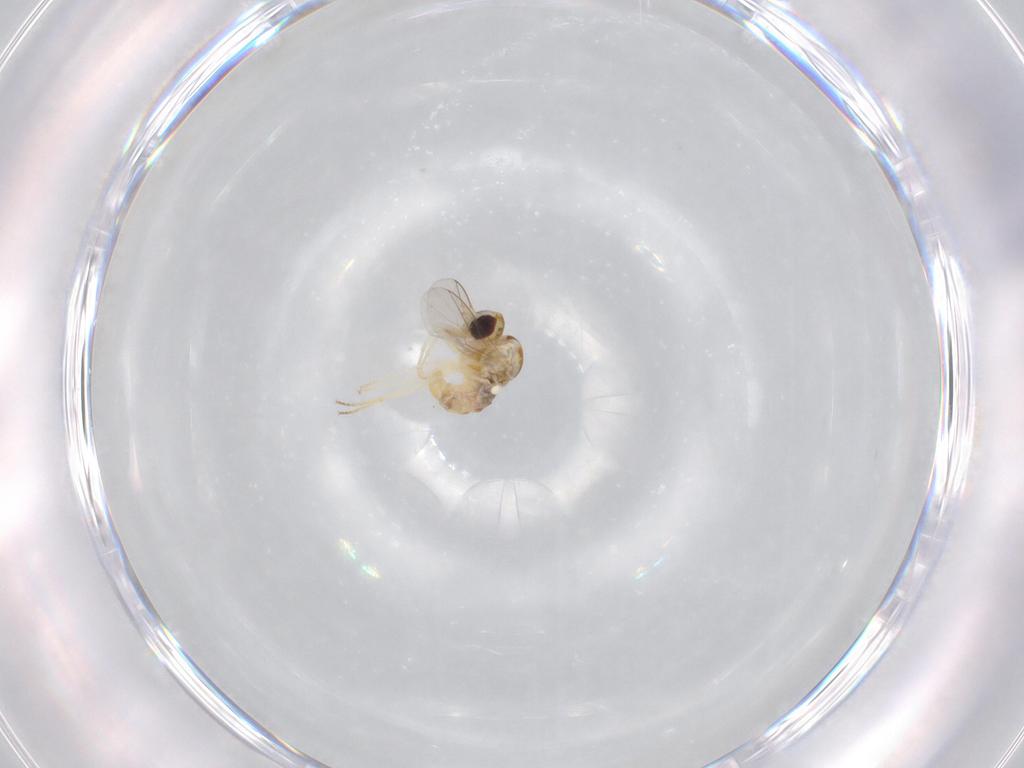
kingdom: Animalia
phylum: Arthropoda
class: Insecta
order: Diptera
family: Mythicomyiidae
